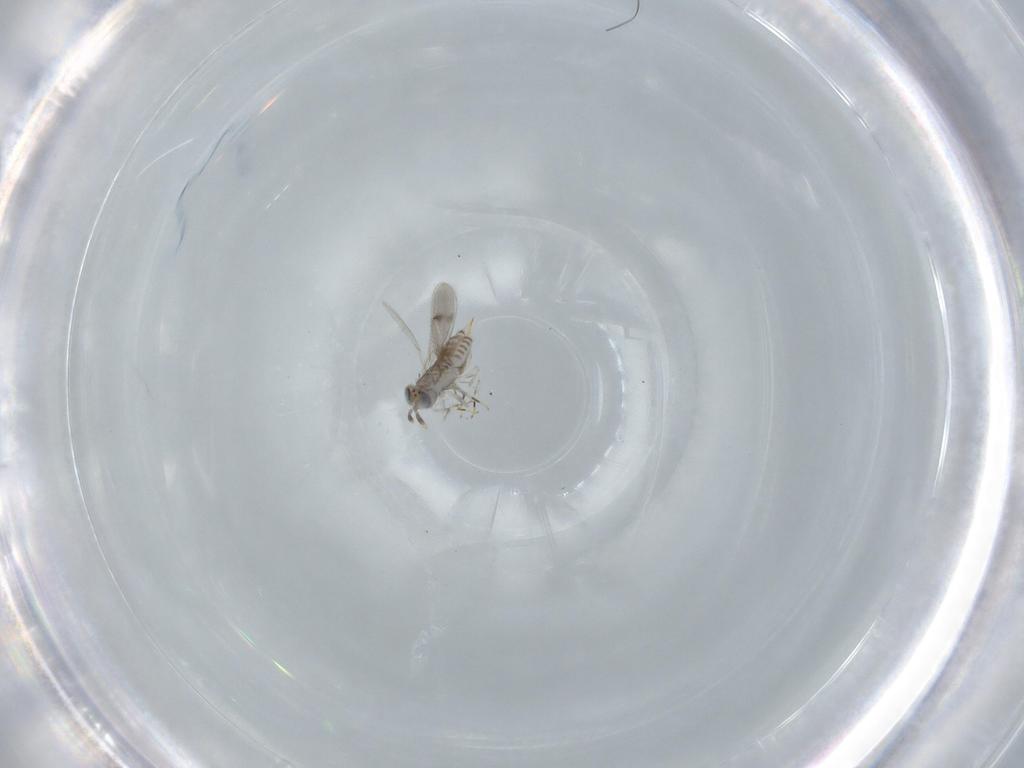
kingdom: Animalia
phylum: Arthropoda
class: Insecta
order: Hymenoptera
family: Aphelinidae
